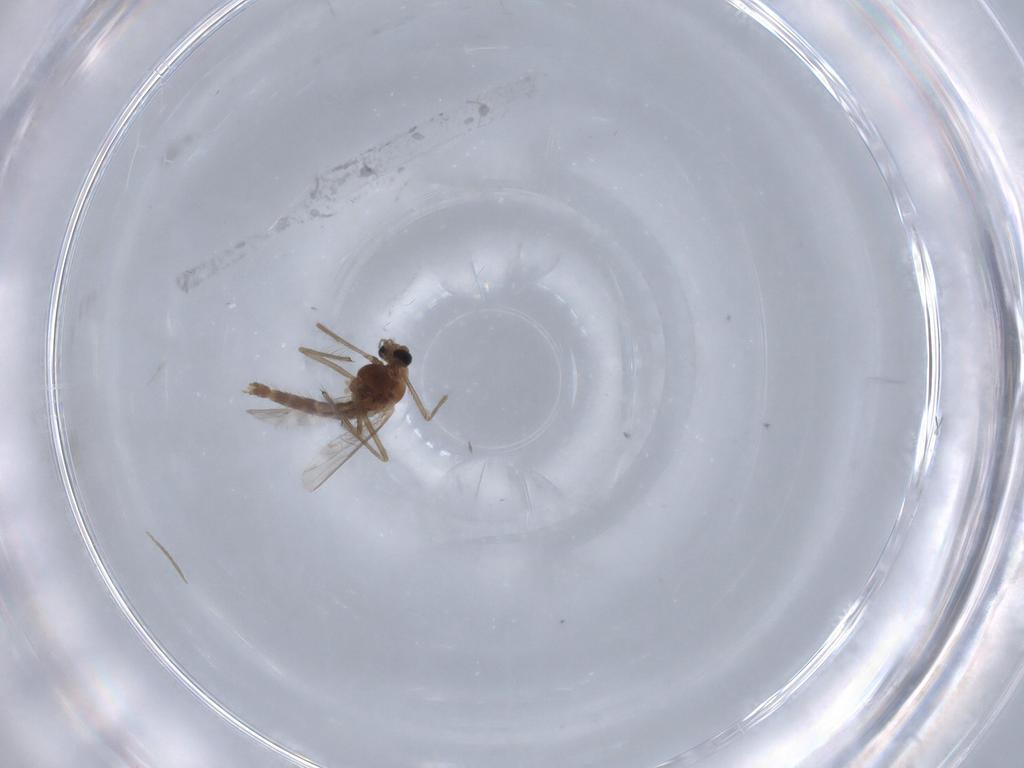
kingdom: Animalia
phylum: Arthropoda
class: Insecta
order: Diptera
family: Chironomidae
